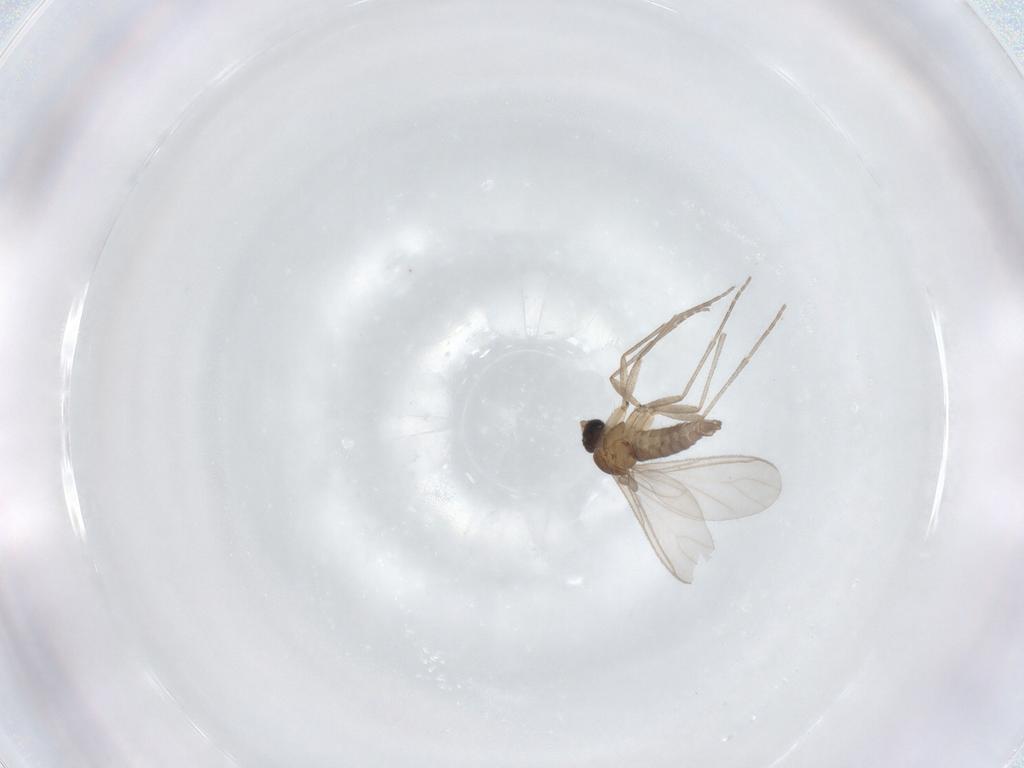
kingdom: Animalia
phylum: Arthropoda
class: Insecta
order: Diptera
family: Sciaridae
